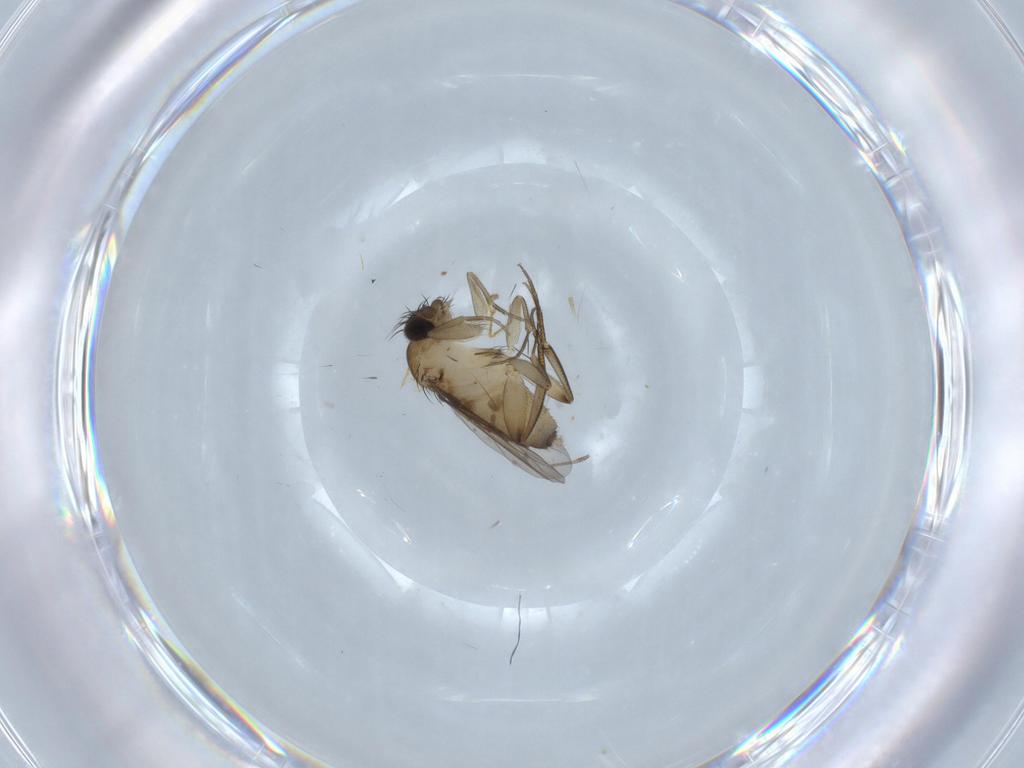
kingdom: Animalia
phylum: Arthropoda
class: Insecta
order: Diptera
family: Phoridae
